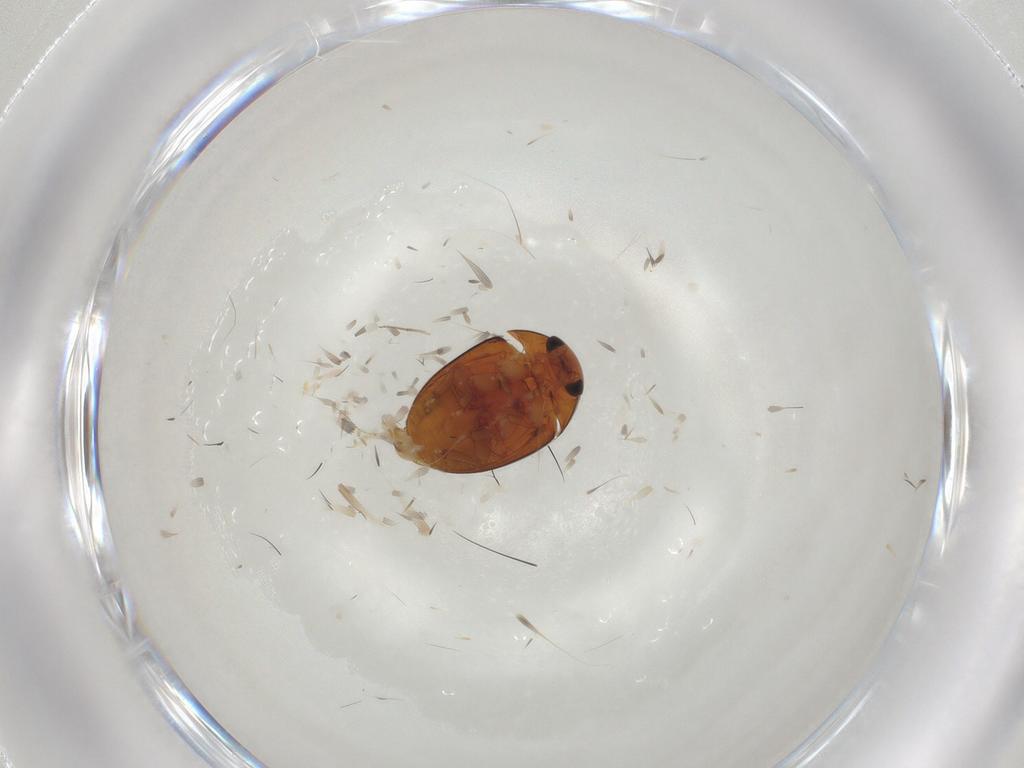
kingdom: Animalia
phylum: Arthropoda
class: Insecta
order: Coleoptera
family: Phalacridae
